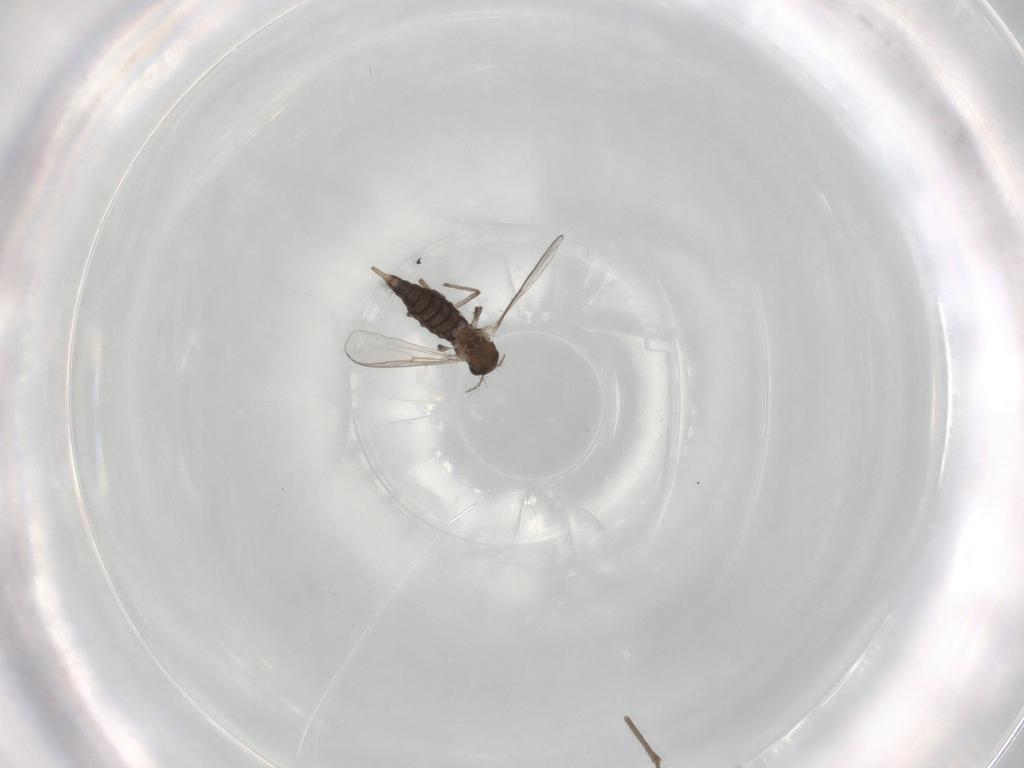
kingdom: Animalia
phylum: Arthropoda
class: Insecta
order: Diptera
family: Chironomidae
